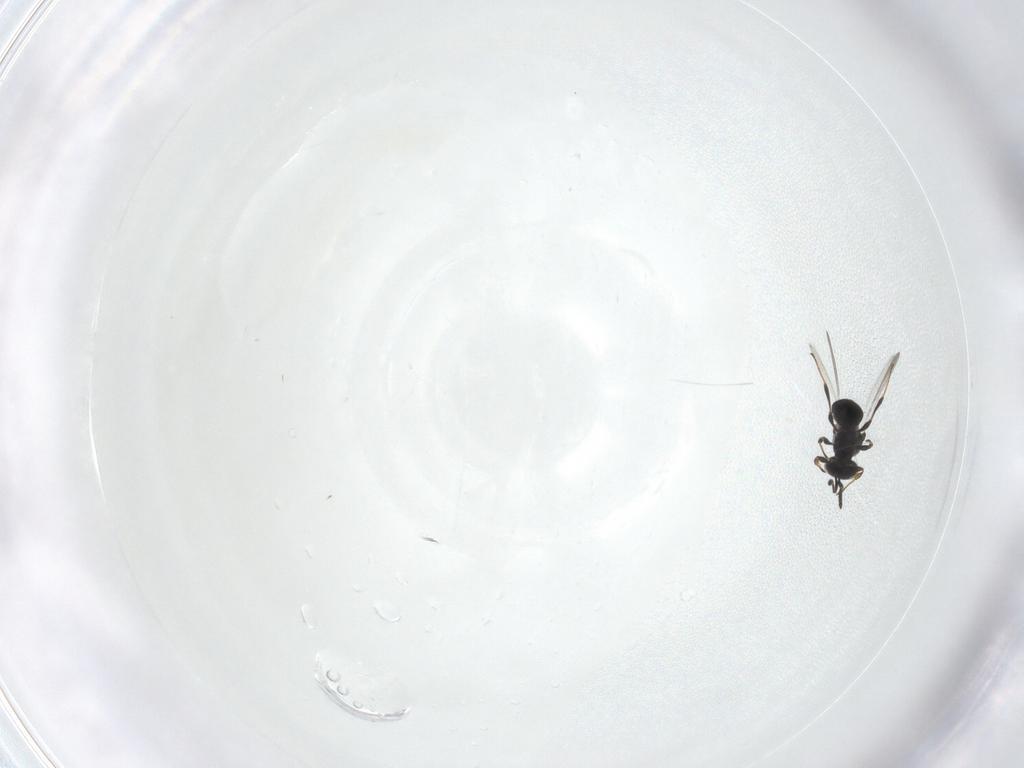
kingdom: Animalia
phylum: Arthropoda
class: Insecta
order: Hymenoptera
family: Platygastridae
